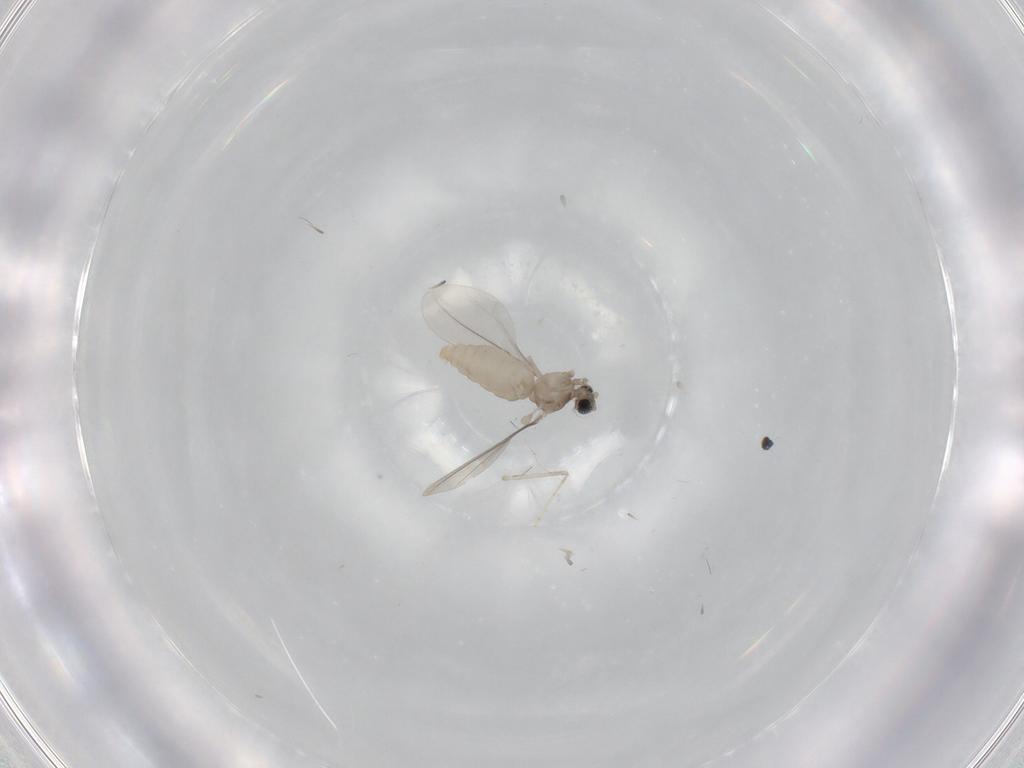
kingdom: Animalia
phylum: Arthropoda
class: Insecta
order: Diptera
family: Cecidomyiidae
